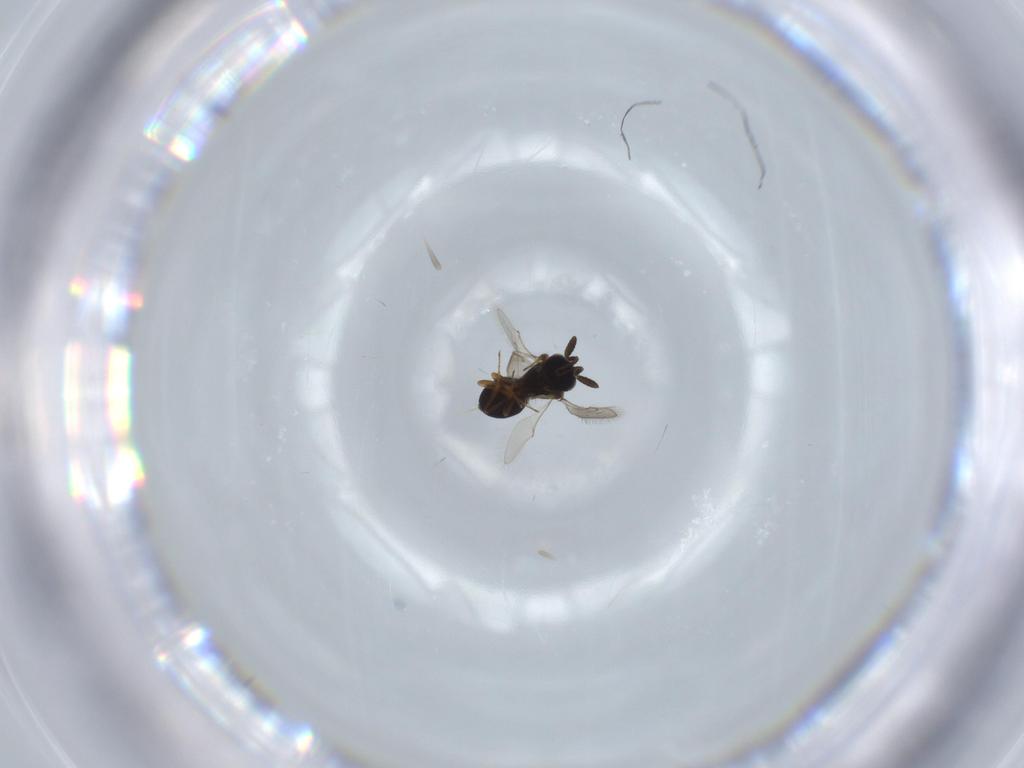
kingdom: Animalia
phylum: Arthropoda
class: Insecta
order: Hymenoptera
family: Scelionidae
